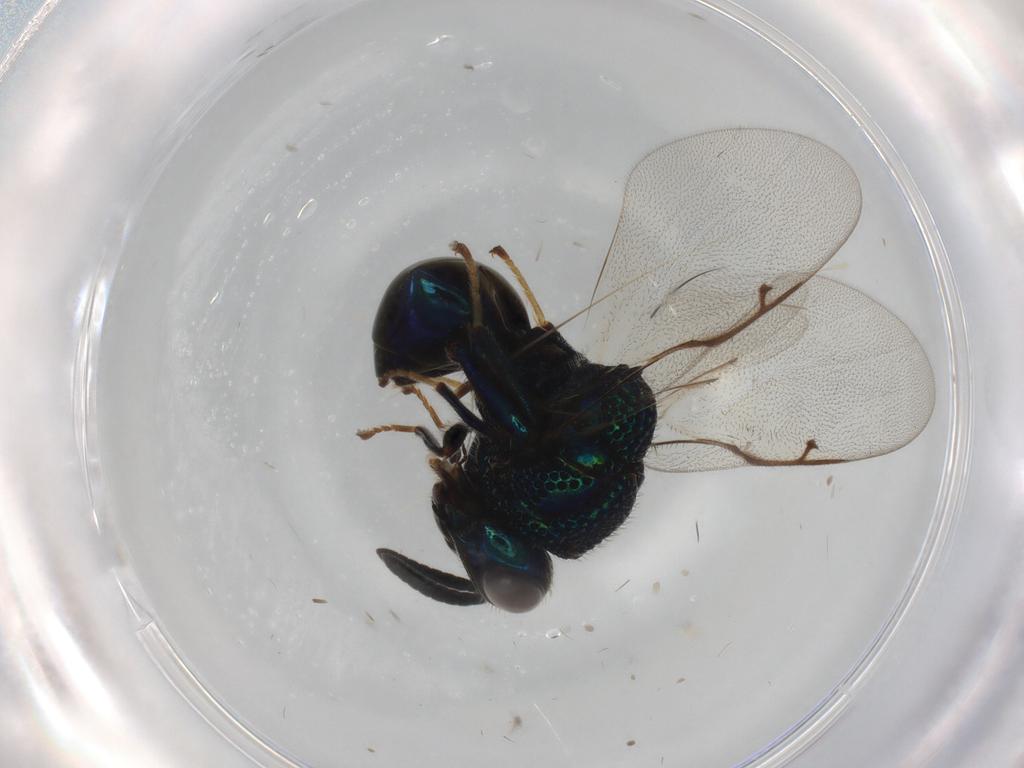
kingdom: Animalia
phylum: Arthropoda
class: Insecta
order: Hymenoptera
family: Perilampidae
